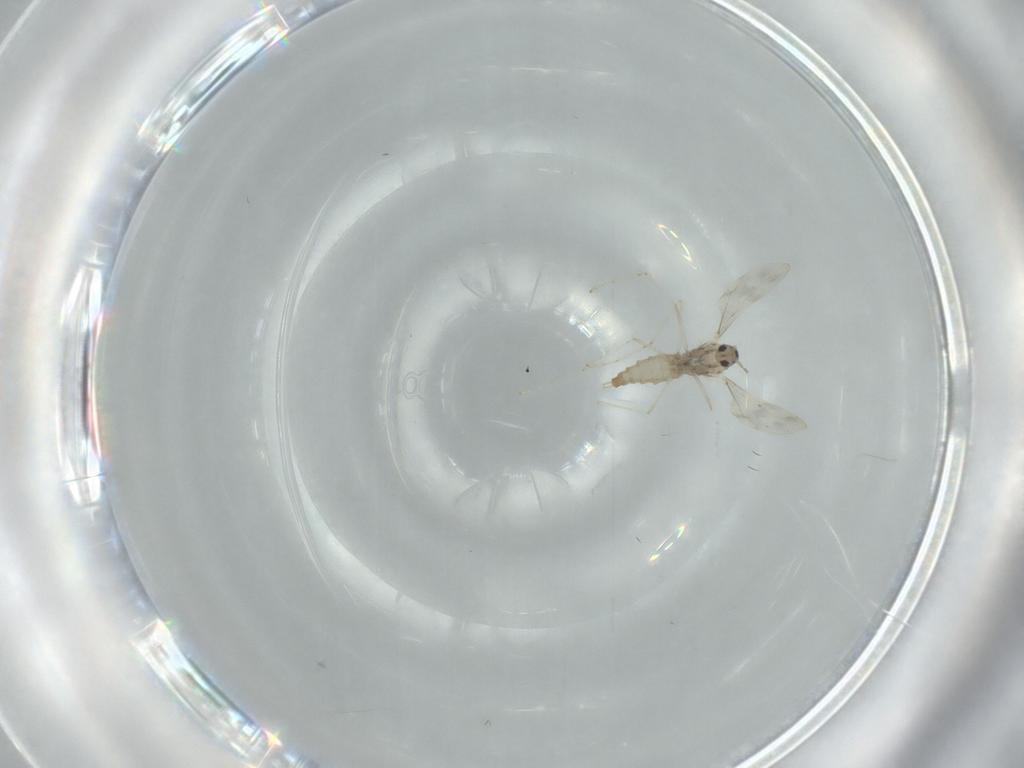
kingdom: Animalia
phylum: Arthropoda
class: Insecta
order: Diptera
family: Cecidomyiidae
